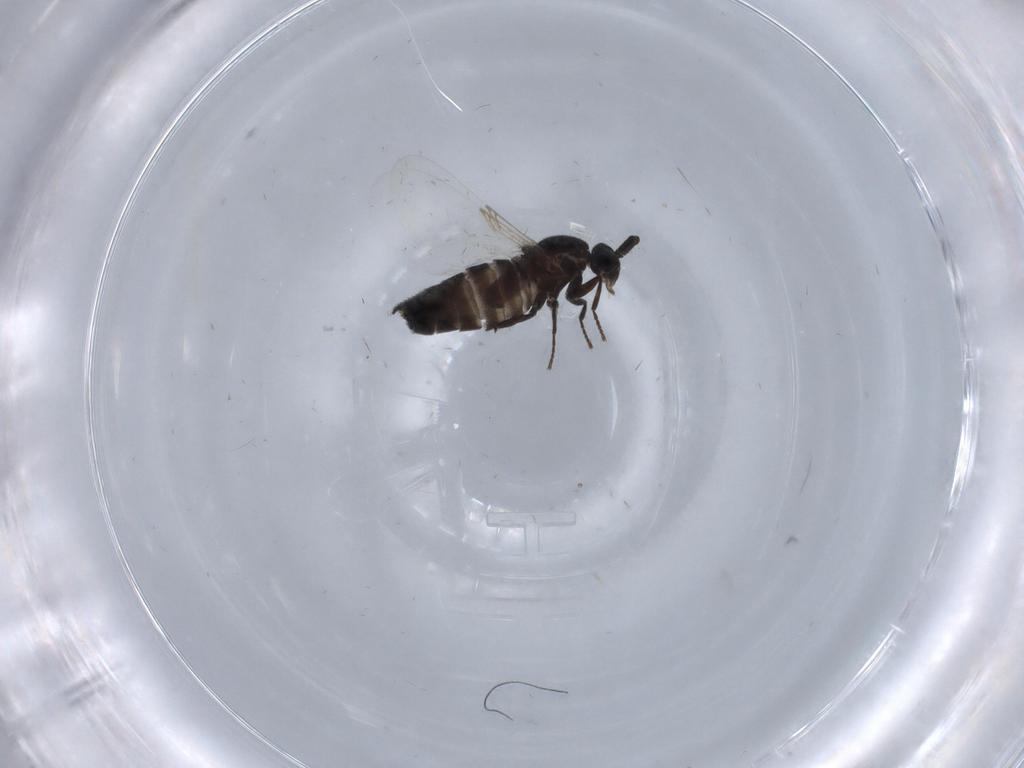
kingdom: Animalia
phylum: Arthropoda
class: Insecta
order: Diptera
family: Scatopsidae
